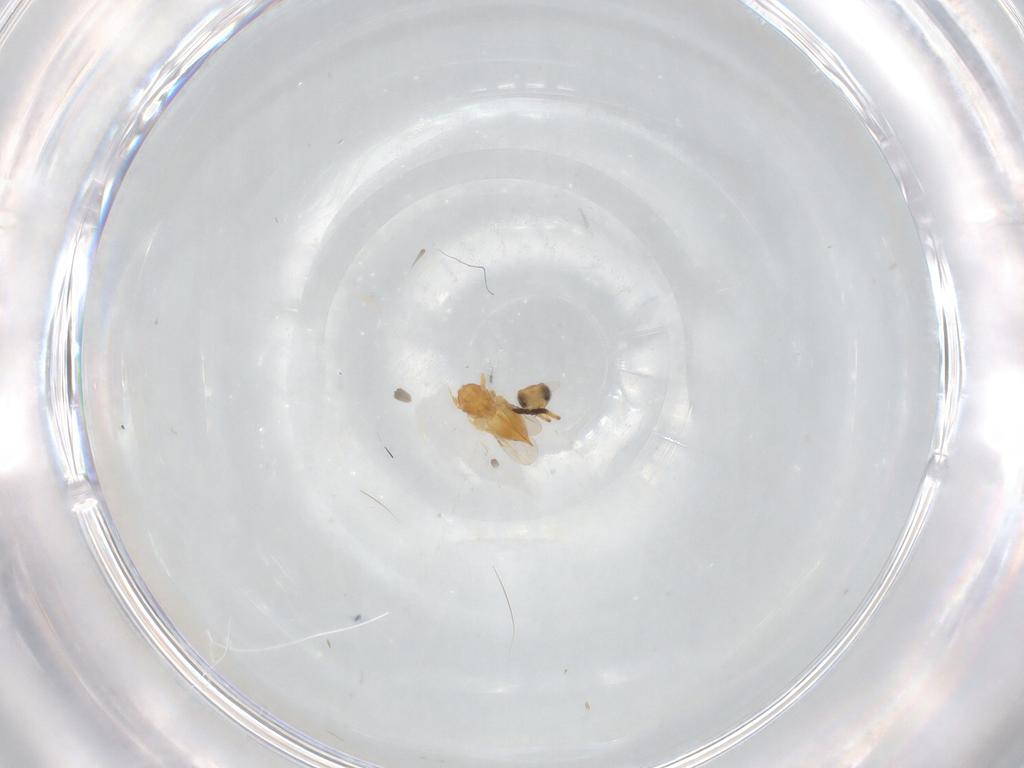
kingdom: Animalia
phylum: Arthropoda
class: Insecta
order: Hymenoptera
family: Ceraphronidae
